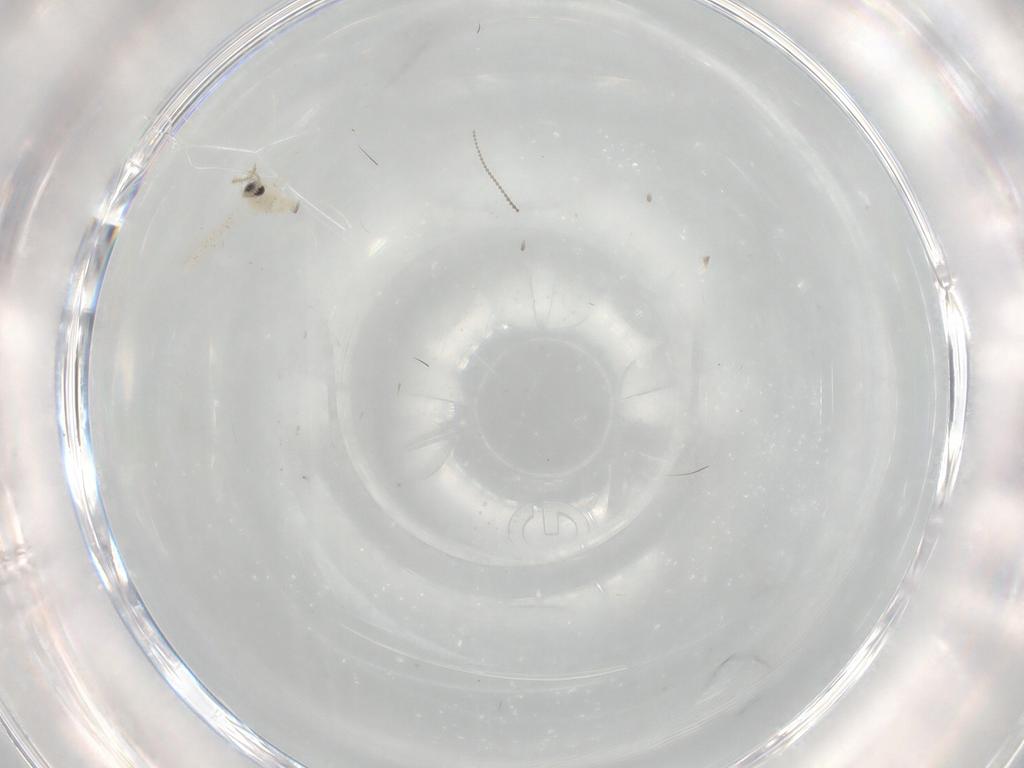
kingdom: Animalia
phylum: Arthropoda
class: Insecta
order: Diptera
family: Cecidomyiidae
